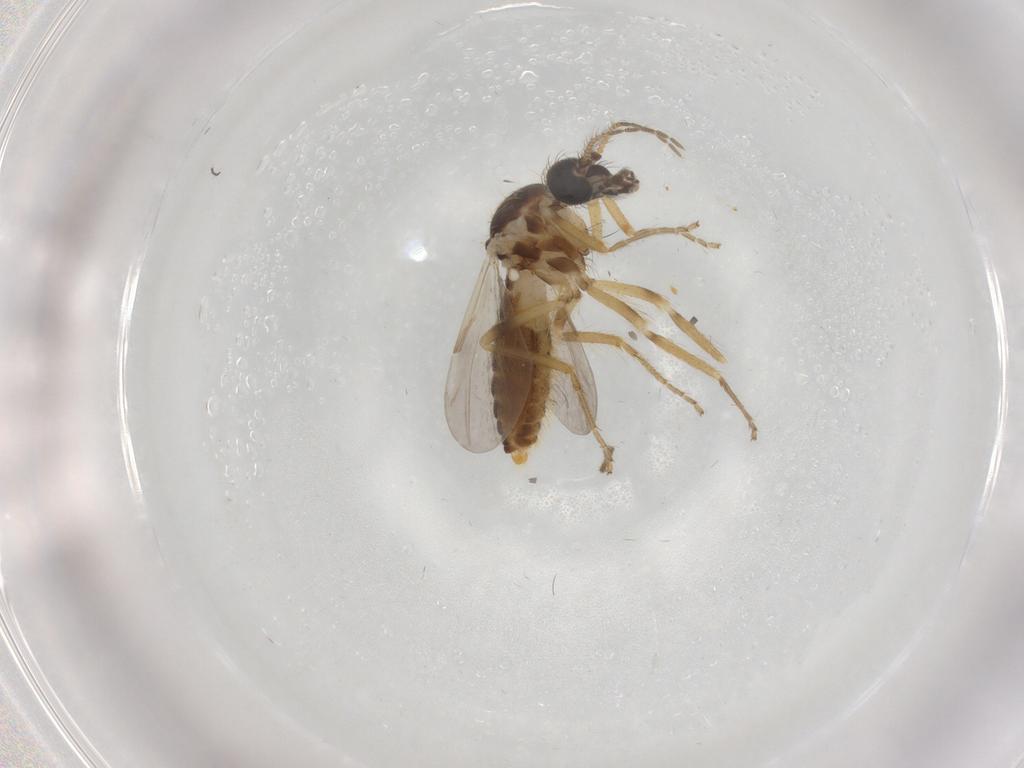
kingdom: Animalia
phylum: Arthropoda
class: Insecta
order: Diptera
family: Ceratopogonidae
